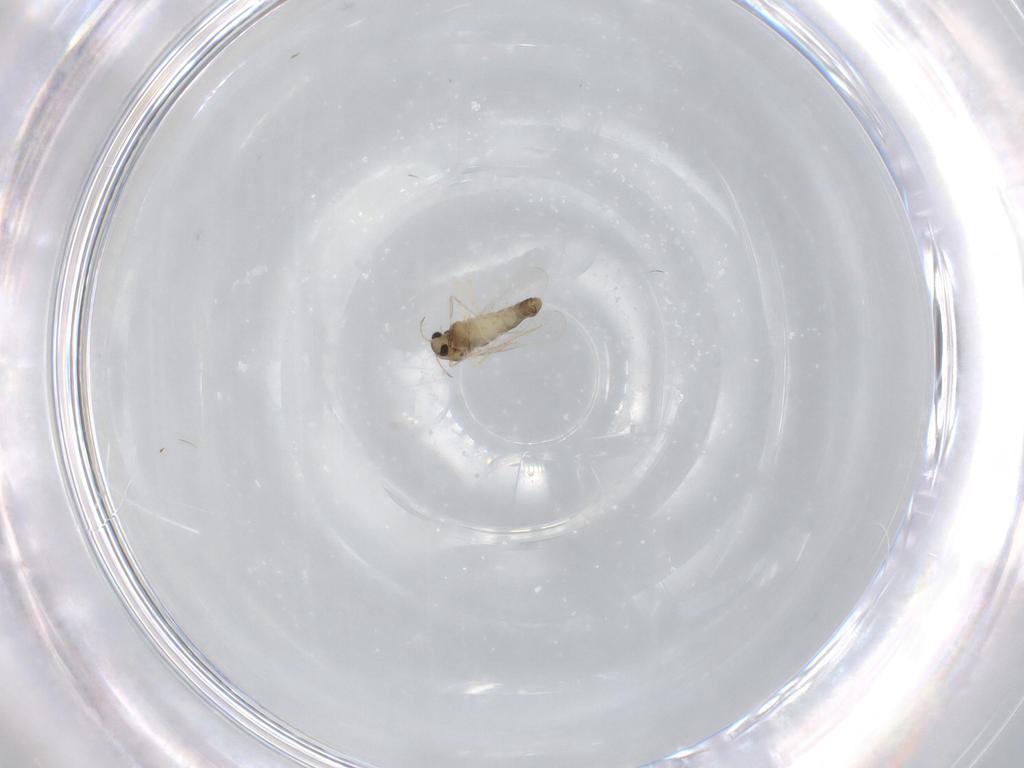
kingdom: Animalia
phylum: Arthropoda
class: Insecta
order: Diptera
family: Chironomidae
